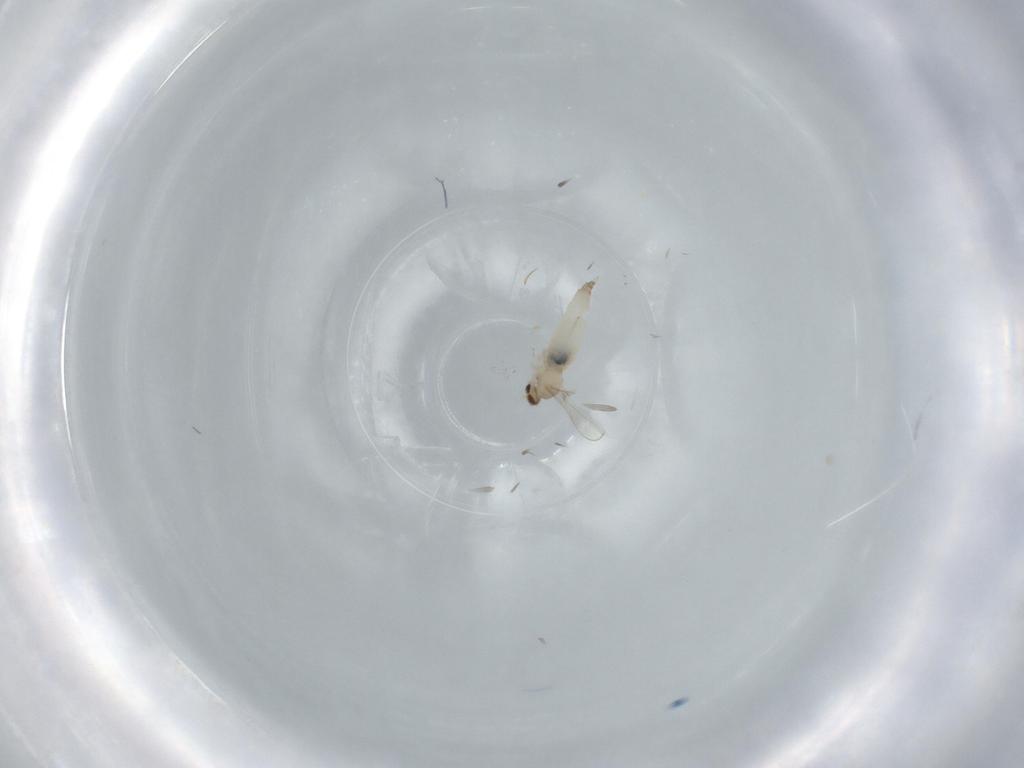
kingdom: Animalia
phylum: Arthropoda
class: Insecta
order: Diptera
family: Cecidomyiidae
